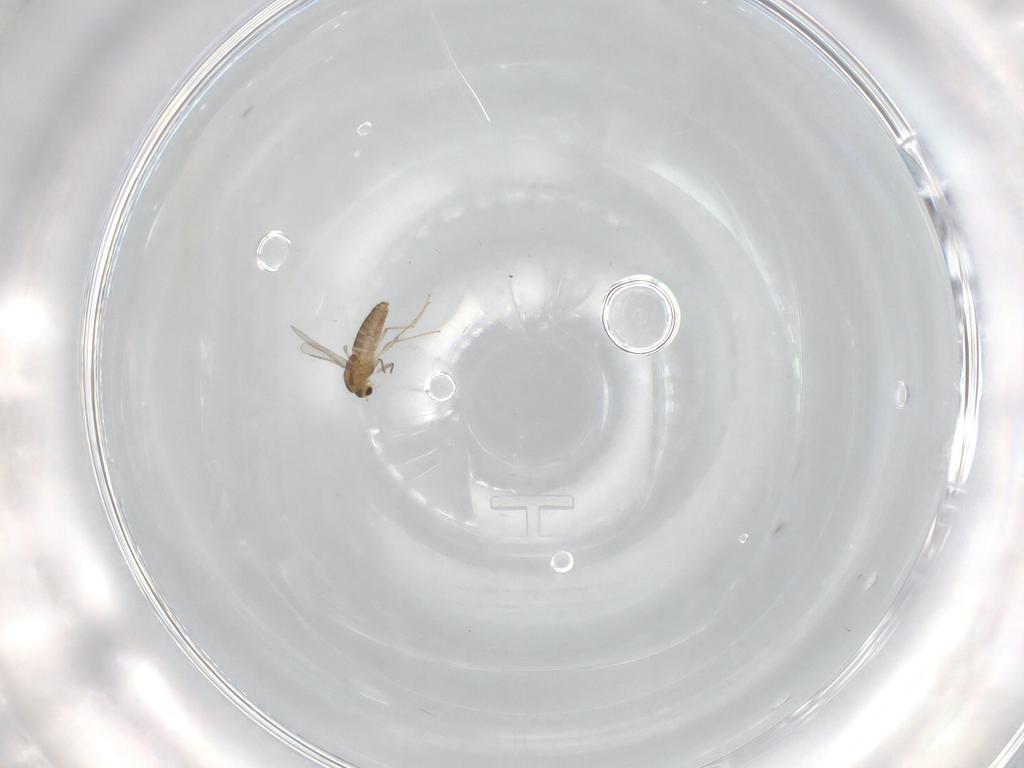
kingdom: Animalia
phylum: Arthropoda
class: Insecta
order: Diptera
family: Chironomidae
